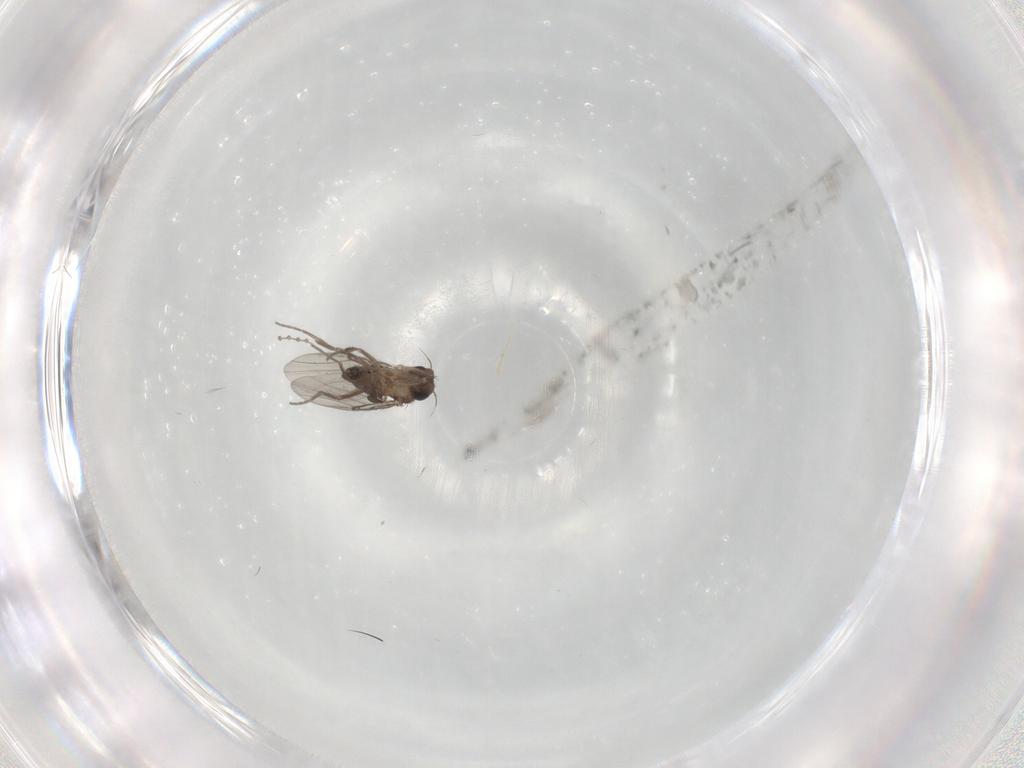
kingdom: Animalia
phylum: Arthropoda
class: Insecta
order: Diptera
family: Cecidomyiidae
